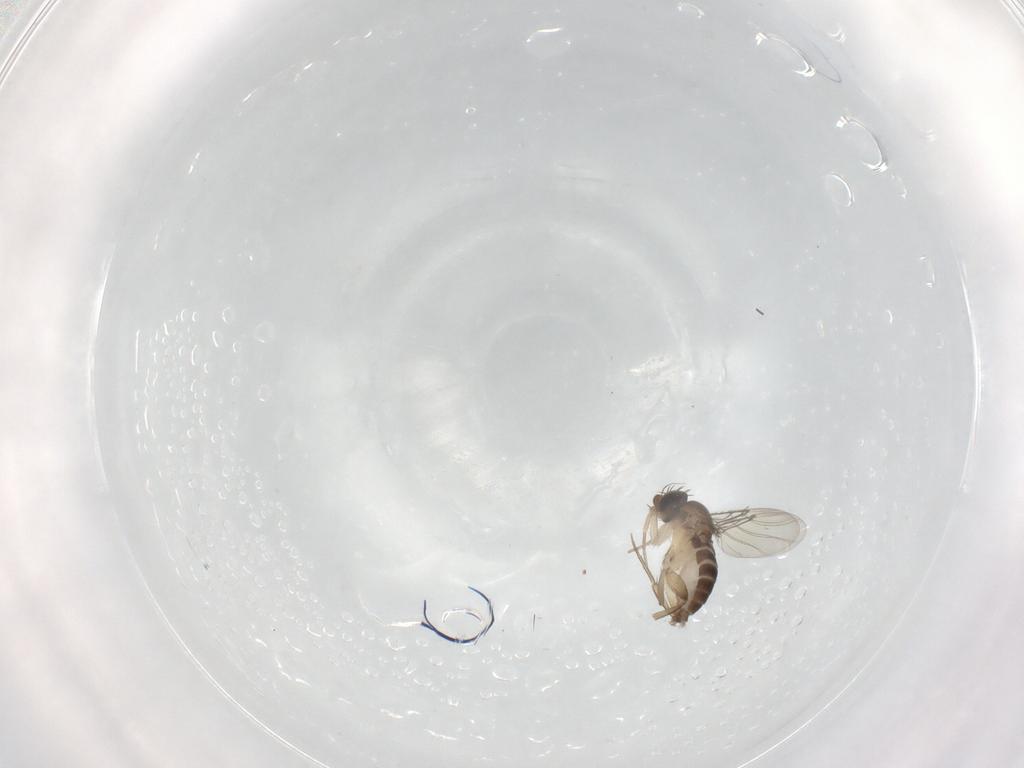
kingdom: Animalia
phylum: Arthropoda
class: Insecta
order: Diptera
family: Phoridae
